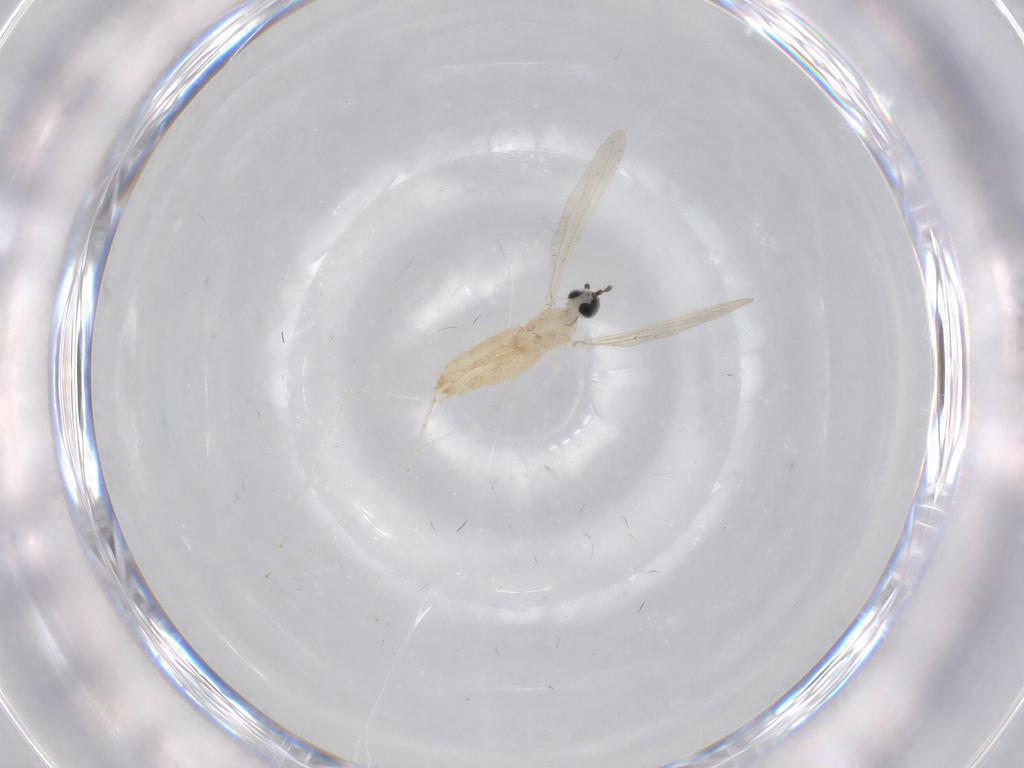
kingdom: Animalia
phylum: Arthropoda
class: Insecta
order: Diptera
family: Cecidomyiidae
